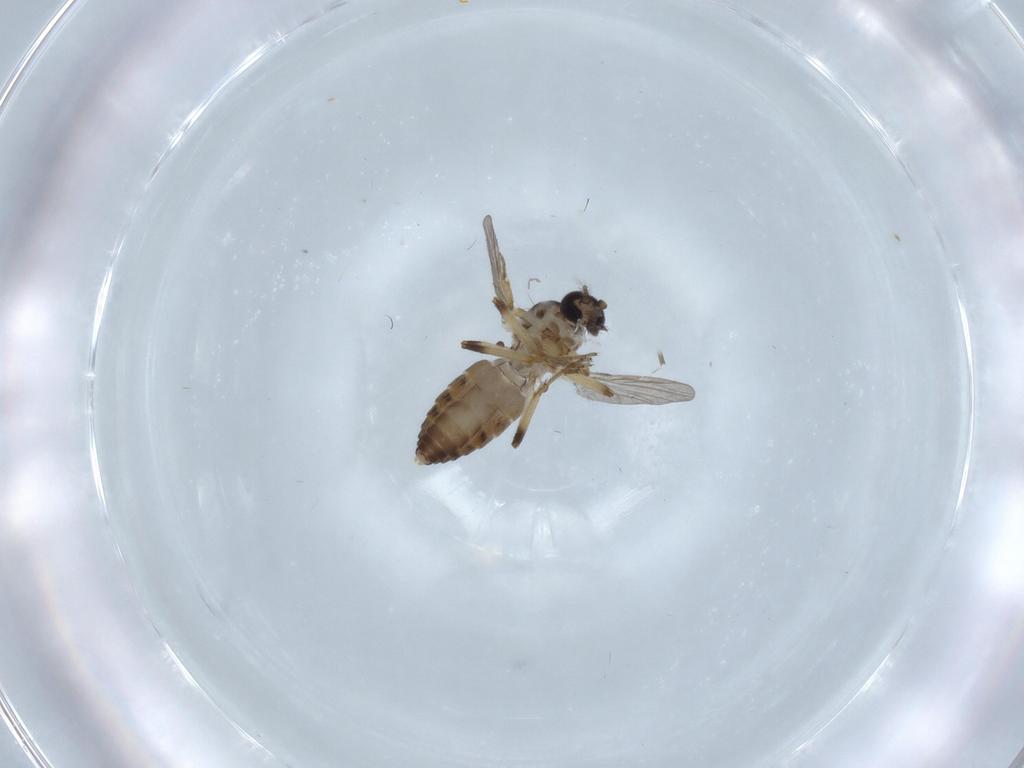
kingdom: Animalia
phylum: Arthropoda
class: Insecta
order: Diptera
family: Ceratopogonidae
